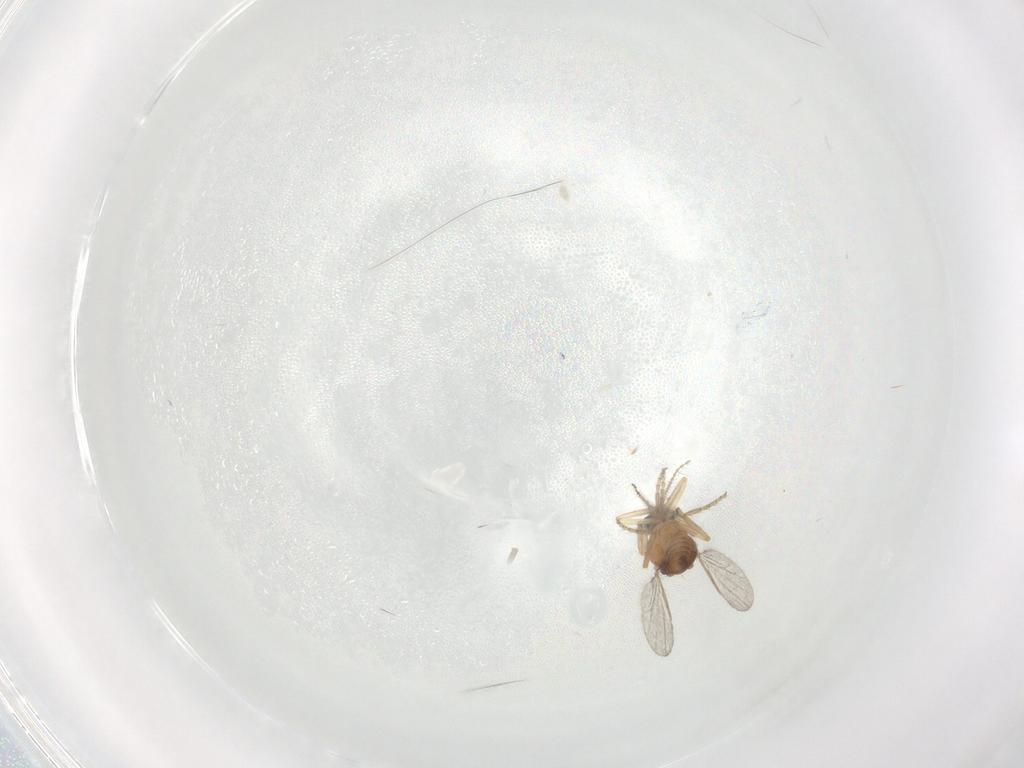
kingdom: Animalia
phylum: Arthropoda
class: Insecta
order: Diptera
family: Ceratopogonidae
